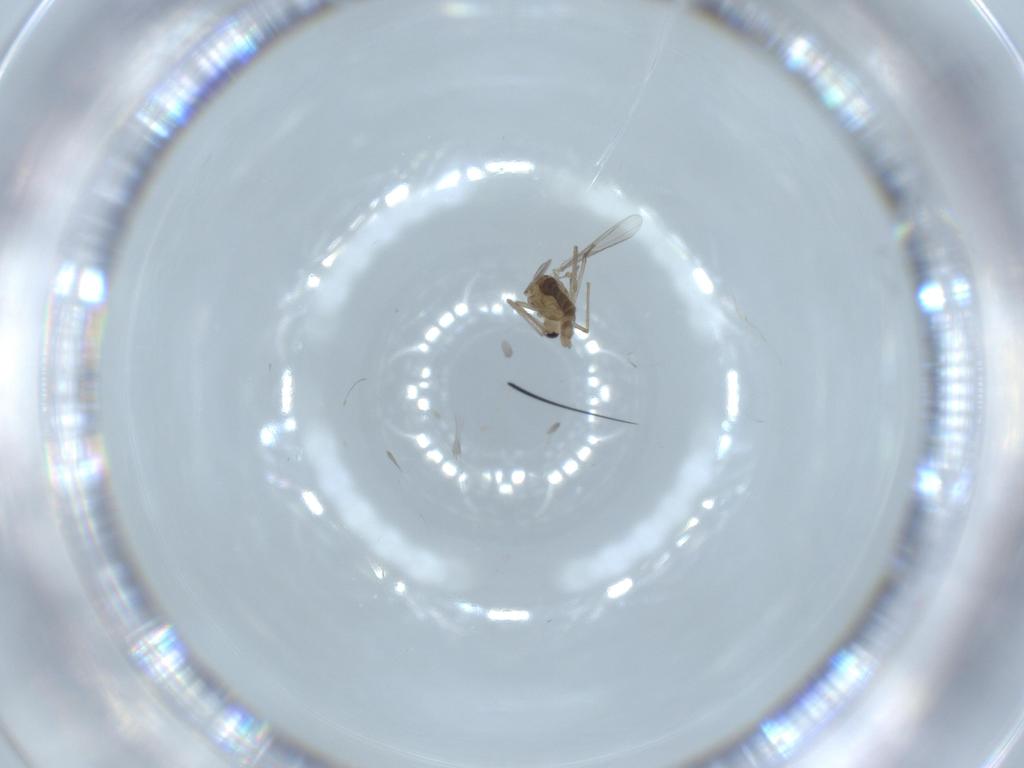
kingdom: Animalia
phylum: Arthropoda
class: Insecta
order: Diptera
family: Chironomidae
